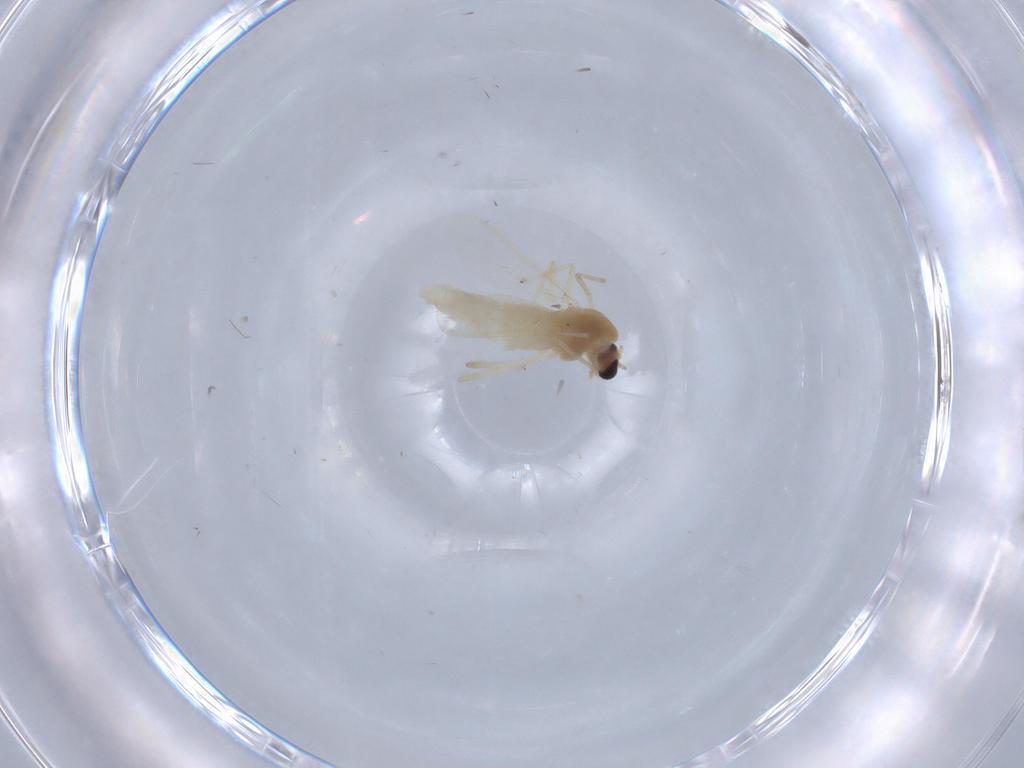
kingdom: Animalia
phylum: Arthropoda
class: Insecta
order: Diptera
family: Chironomidae
